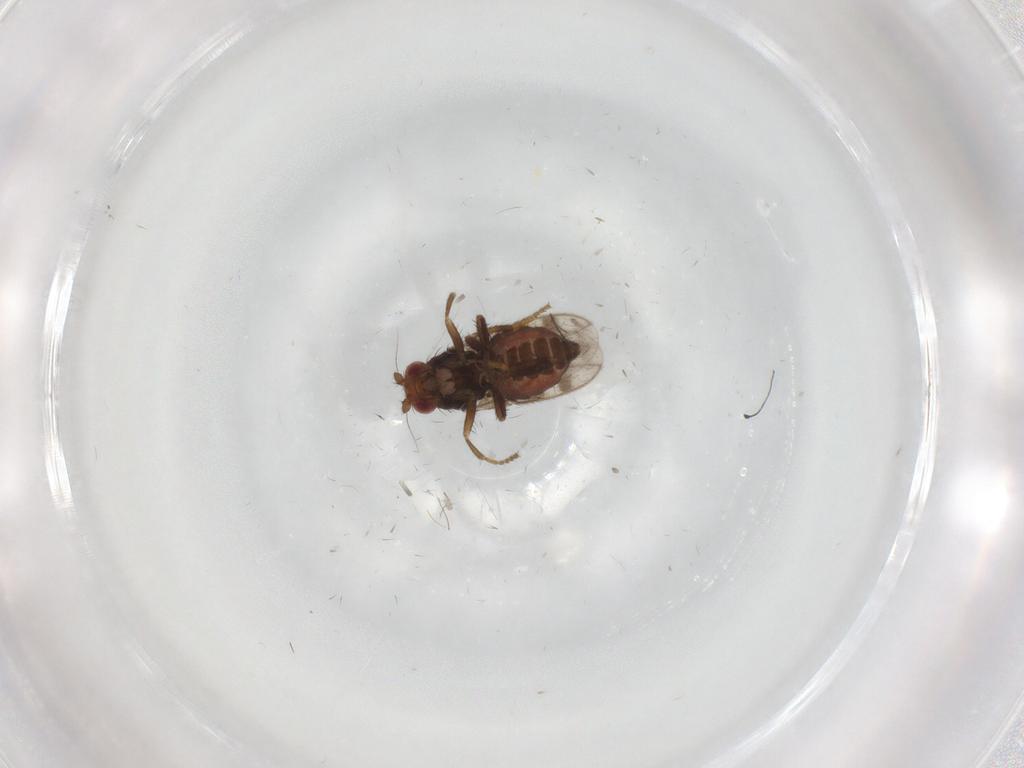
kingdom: Animalia
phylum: Arthropoda
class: Insecta
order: Diptera
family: Sphaeroceridae
